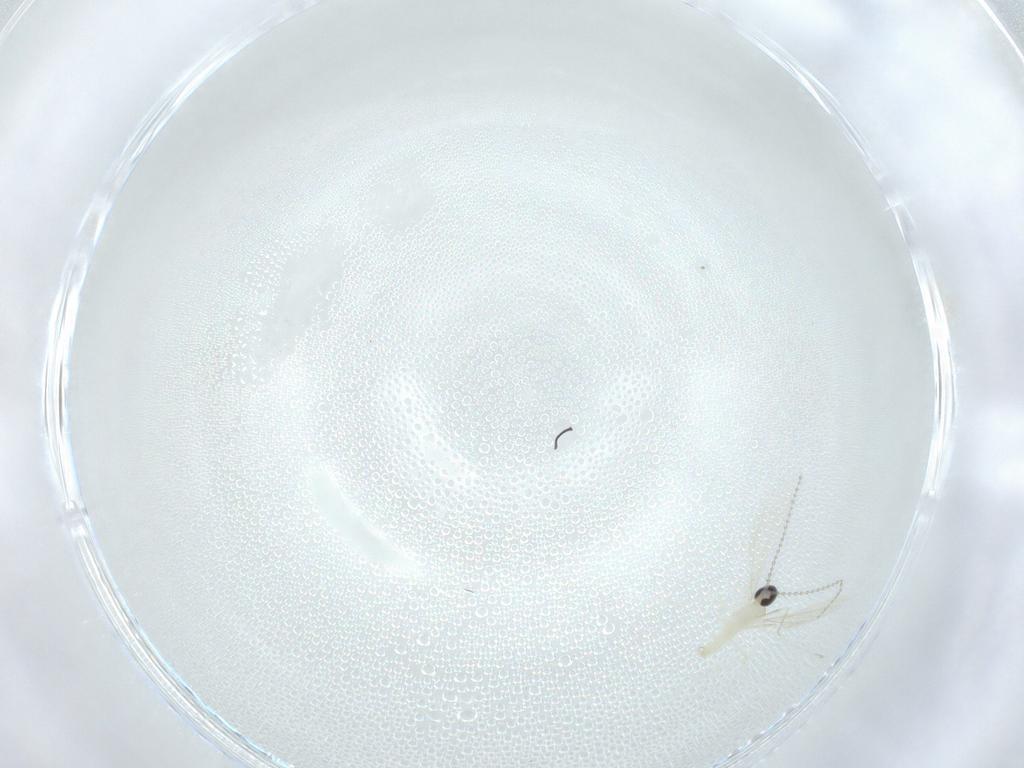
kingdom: Animalia
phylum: Arthropoda
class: Insecta
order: Diptera
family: Cecidomyiidae
